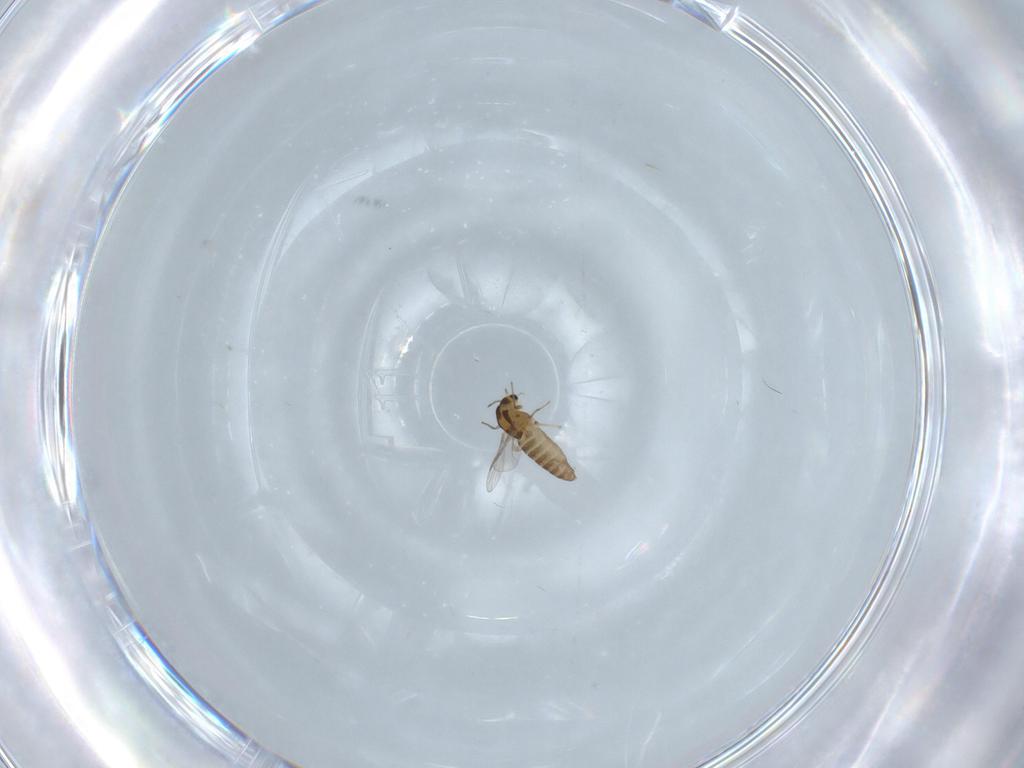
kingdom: Animalia
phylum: Arthropoda
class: Insecta
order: Diptera
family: Chironomidae
